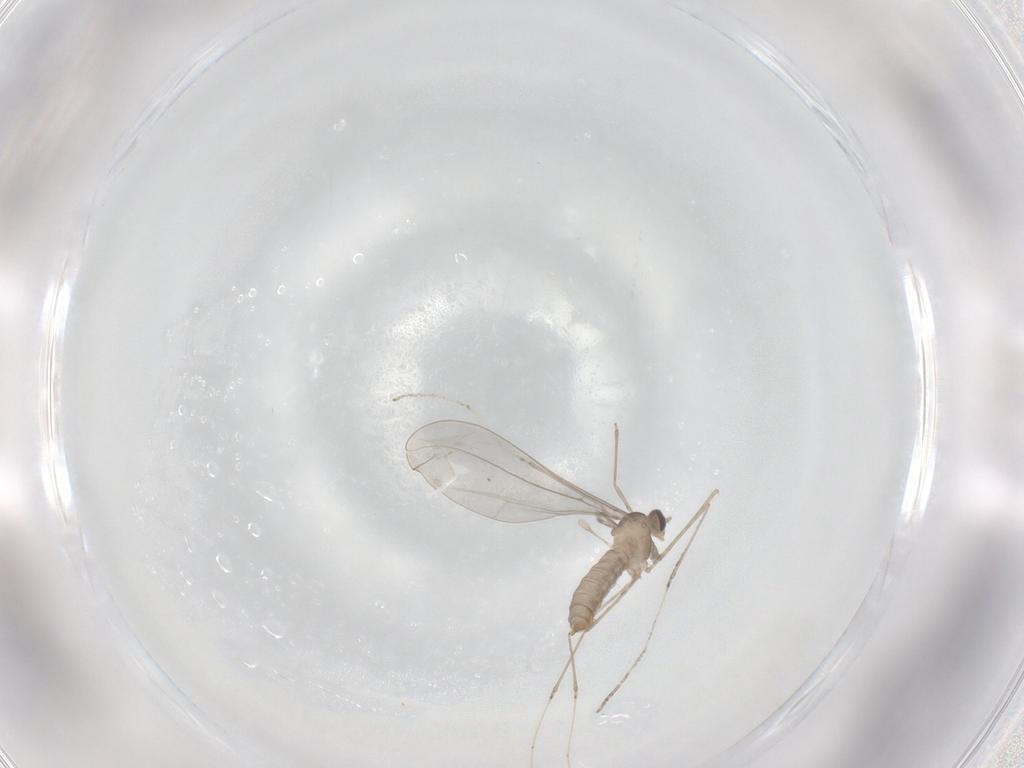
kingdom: Animalia
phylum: Arthropoda
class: Insecta
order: Diptera
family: Cecidomyiidae
